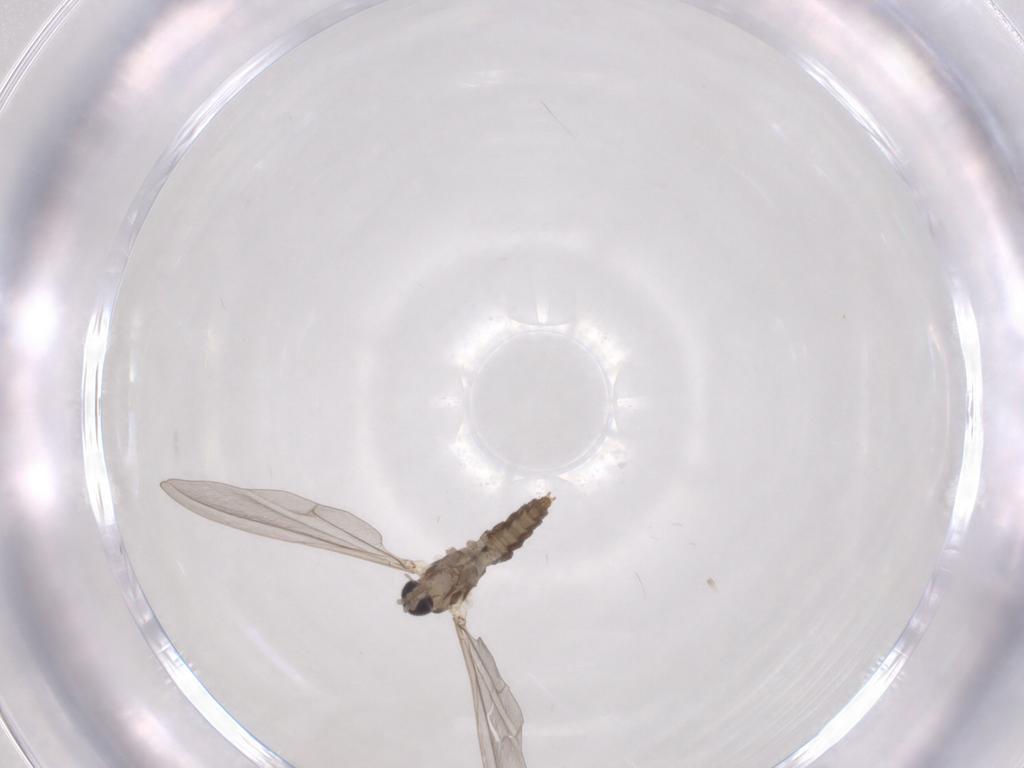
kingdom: Animalia
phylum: Arthropoda
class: Insecta
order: Diptera
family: Cecidomyiidae
